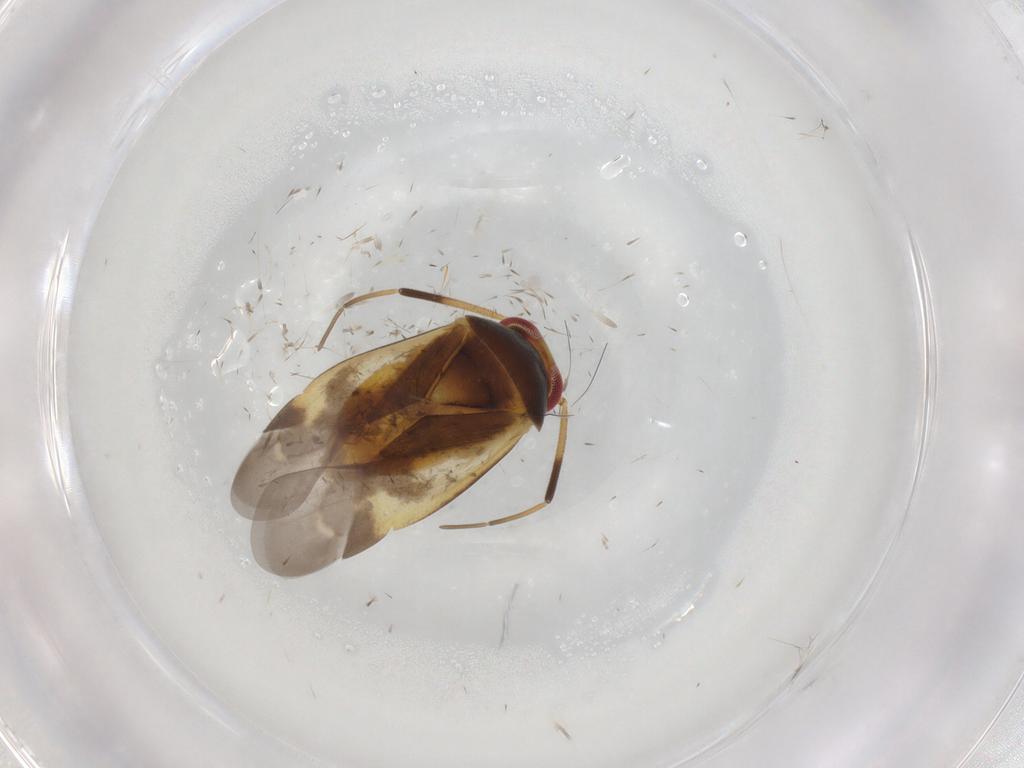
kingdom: Animalia
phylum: Arthropoda
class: Insecta
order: Hemiptera
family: Miridae
